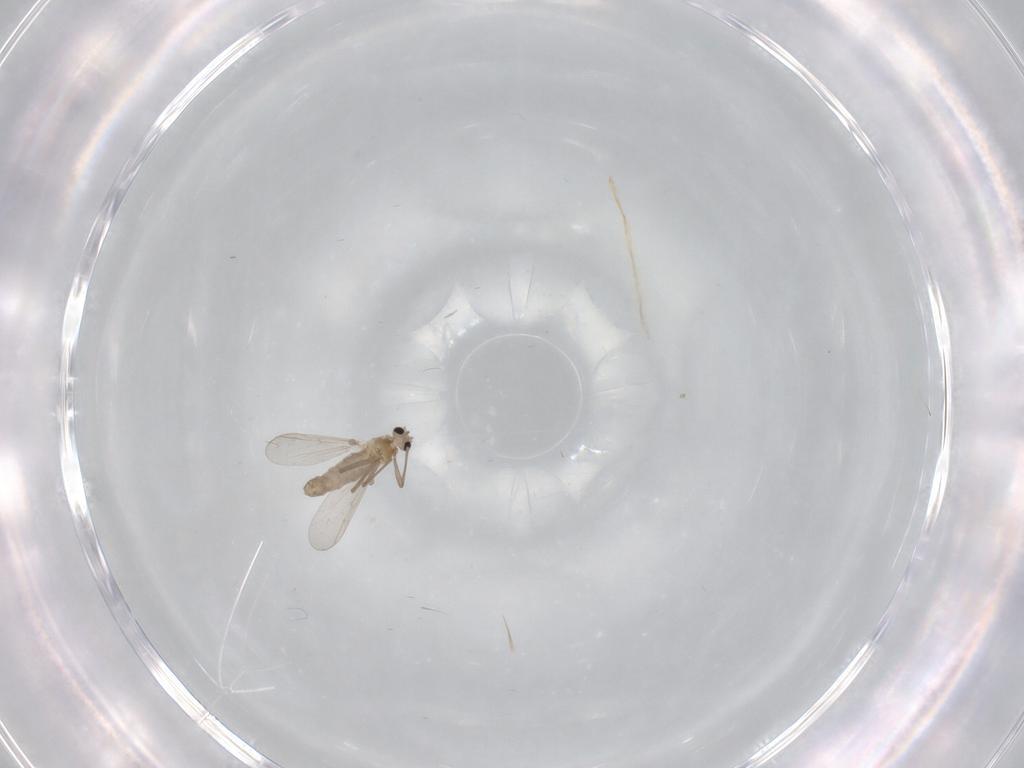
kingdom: Animalia
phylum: Arthropoda
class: Insecta
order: Diptera
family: Chironomidae
